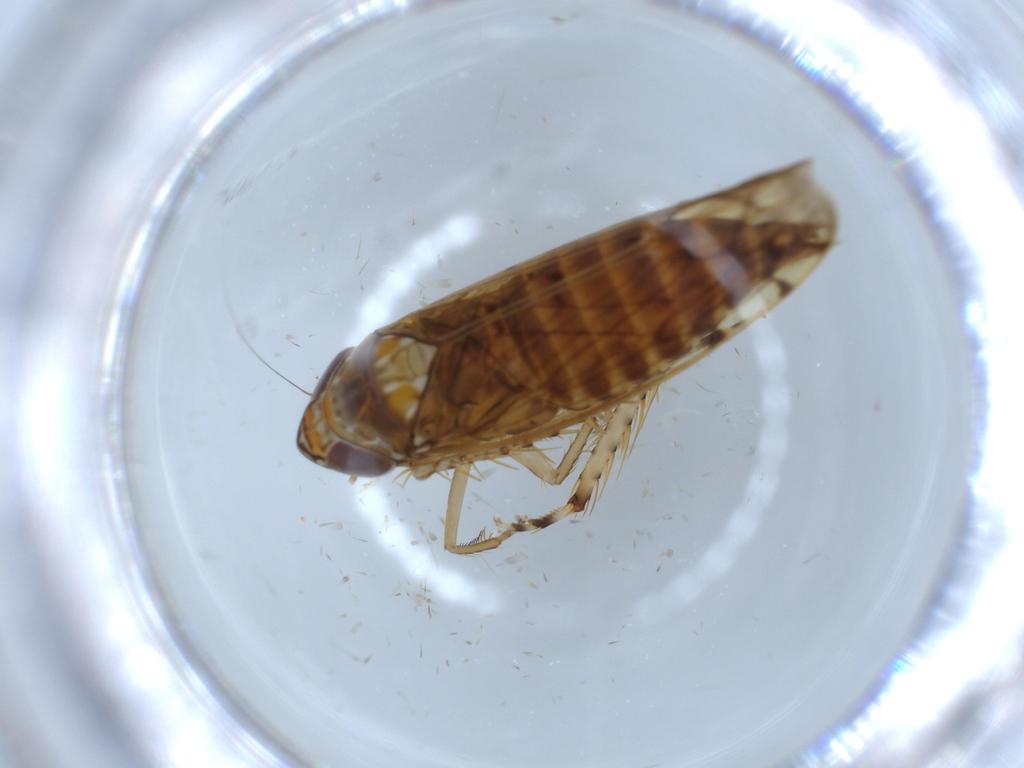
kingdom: Animalia
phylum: Arthropoda
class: Insecta
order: Hemiptera
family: Cicadellidae
